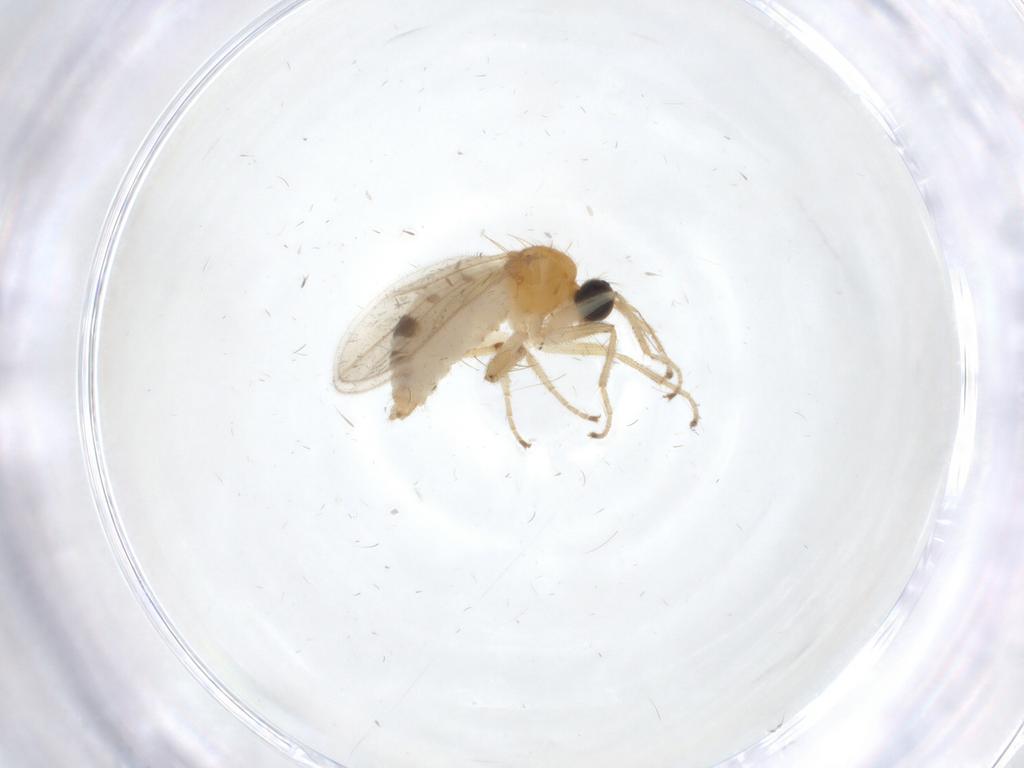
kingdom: Animalia
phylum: Arthropoda
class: Insecta
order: Diptera
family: Hybotidae
